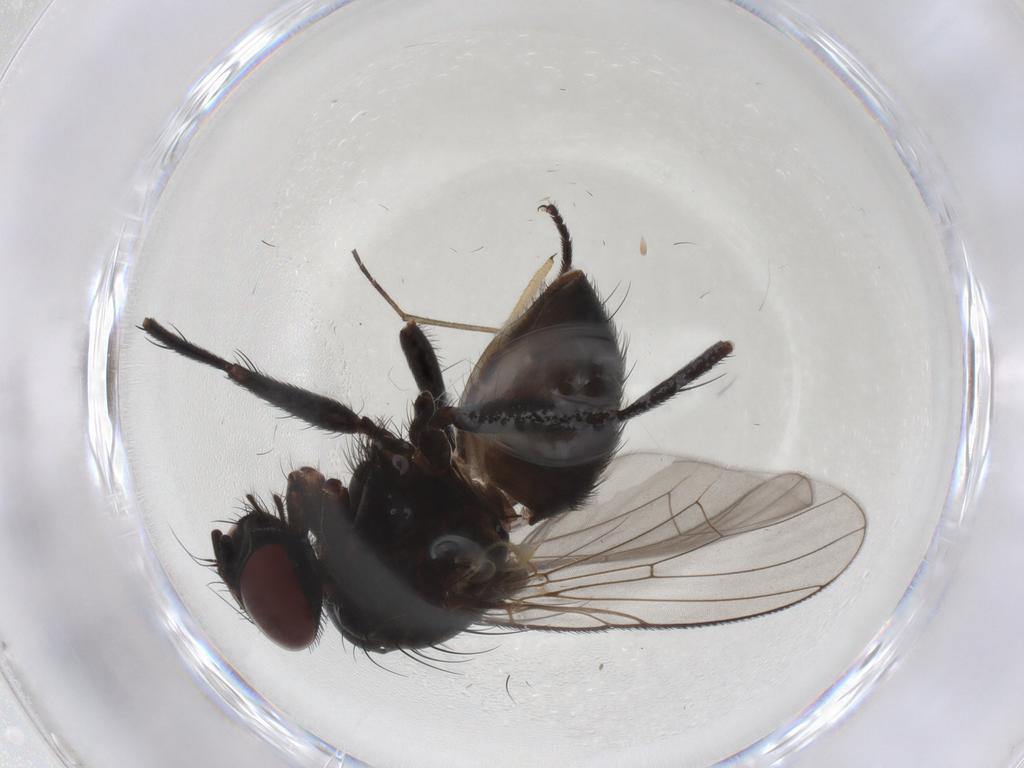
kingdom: Animalia
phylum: Arthropoda
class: Insecta
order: Diptera
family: Muscidae
